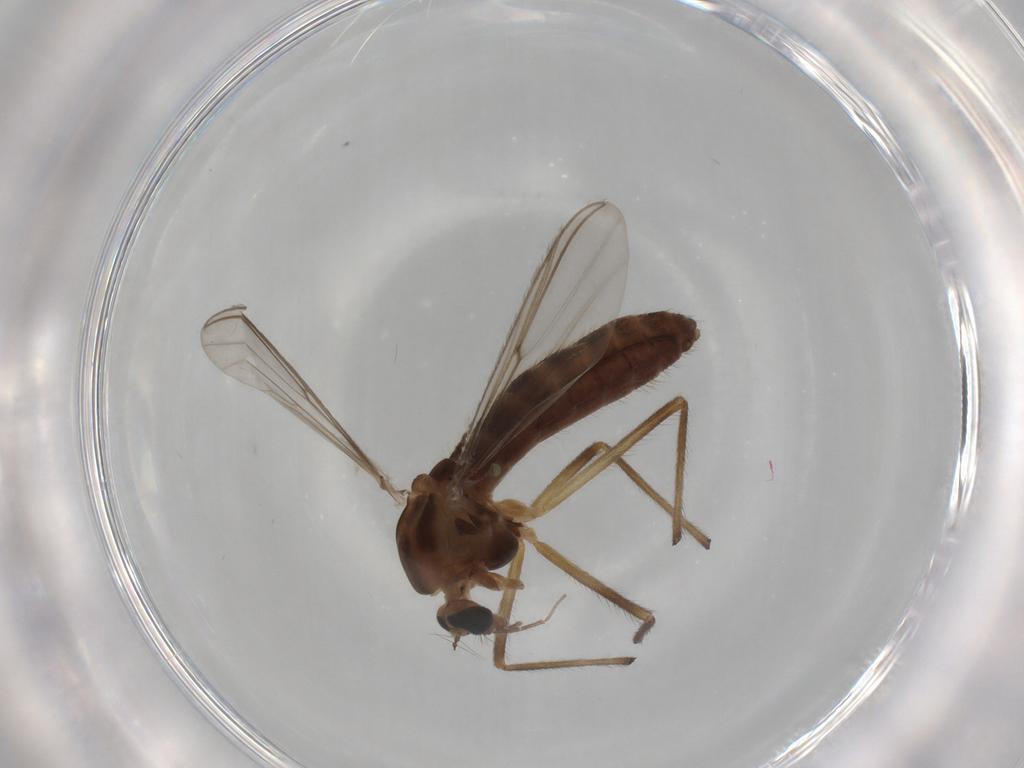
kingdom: Animalia
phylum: Arthropoda
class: Insecta
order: Diptera
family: Chironomidae
